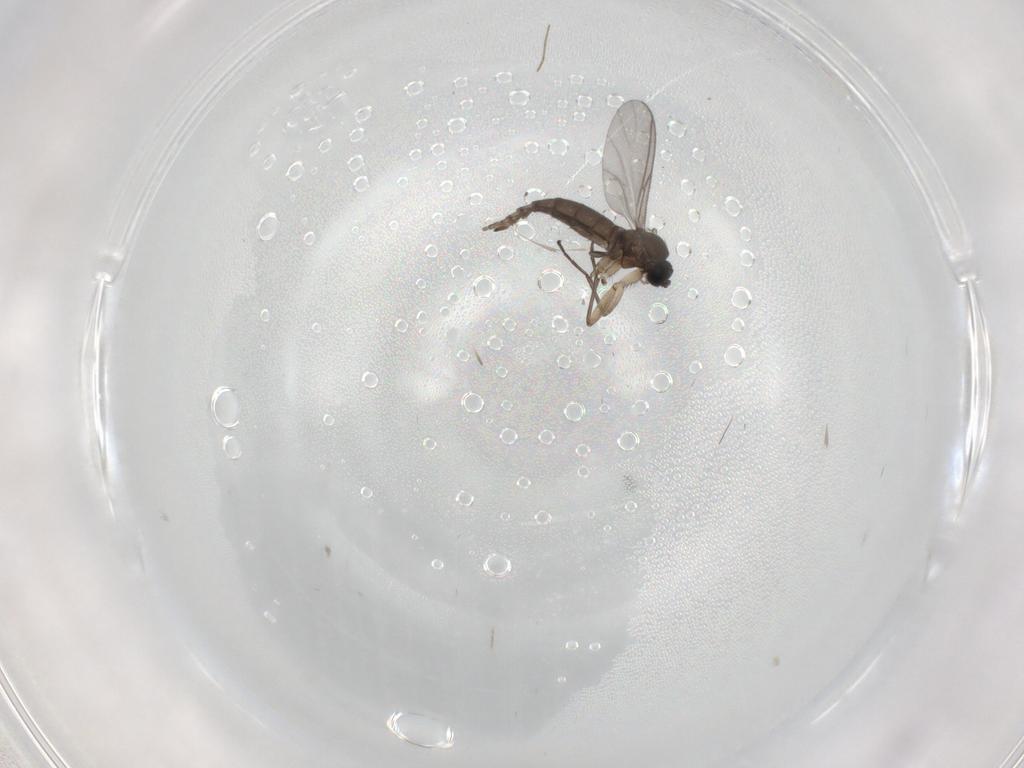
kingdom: Animalia
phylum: Arthropoda
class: Insecta
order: Diptera
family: Sciaridae
